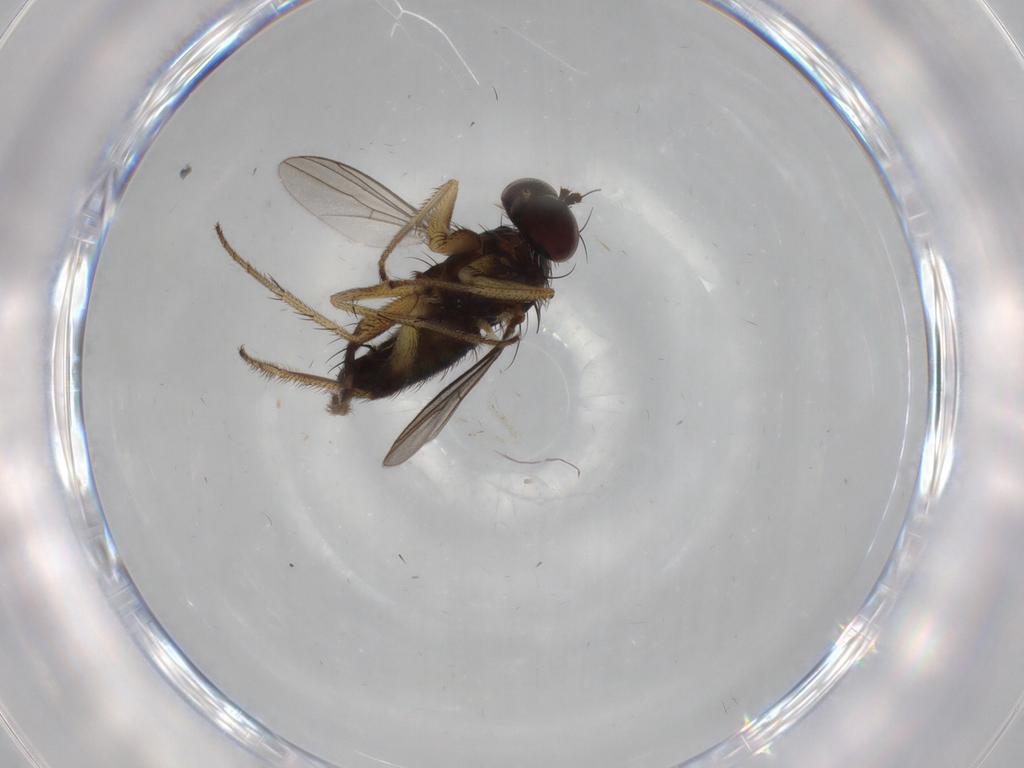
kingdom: Animalia
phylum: Arthropoda
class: Insecta
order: Diptera
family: Dolichopodidae
